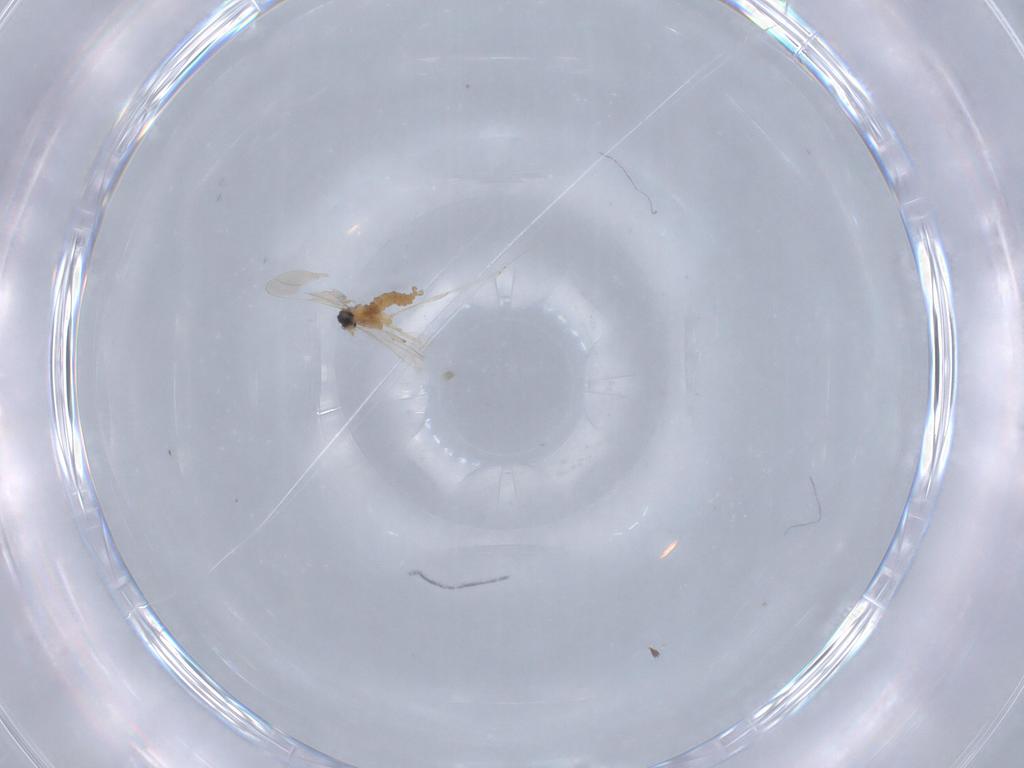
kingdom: Animalia
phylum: Arthropoda
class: Insecta
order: Diptera
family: Cecidomyiidae
